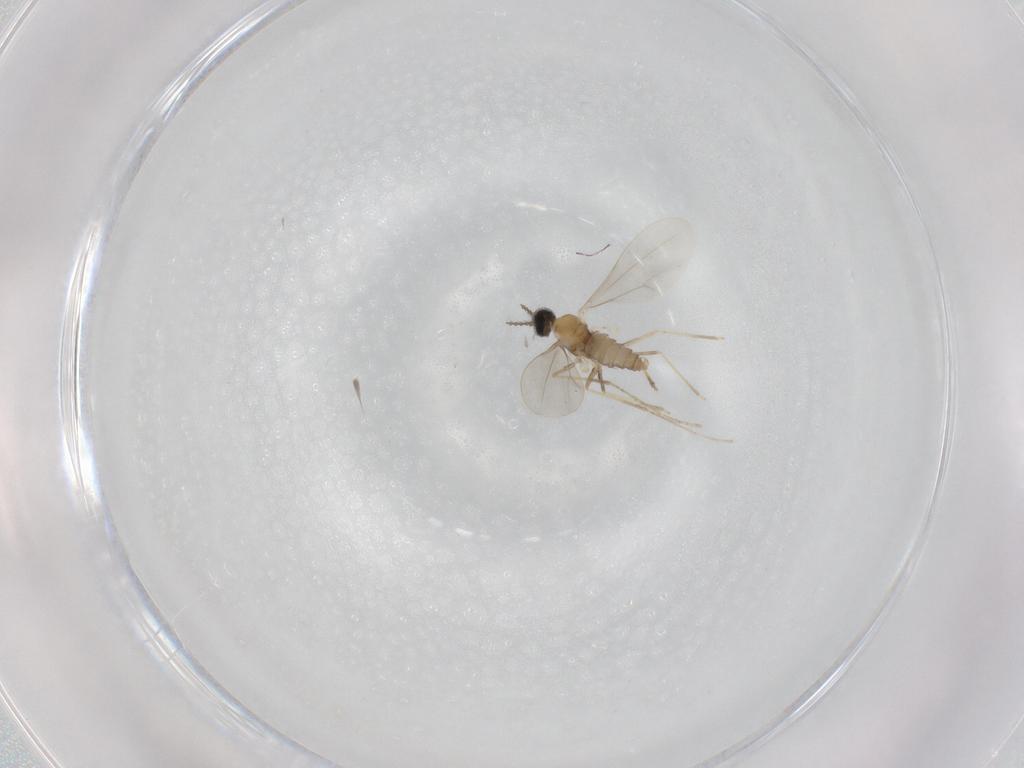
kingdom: Animalia
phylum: Arthropoda
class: Insecta
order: Diptera
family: Cecidomyiidae
